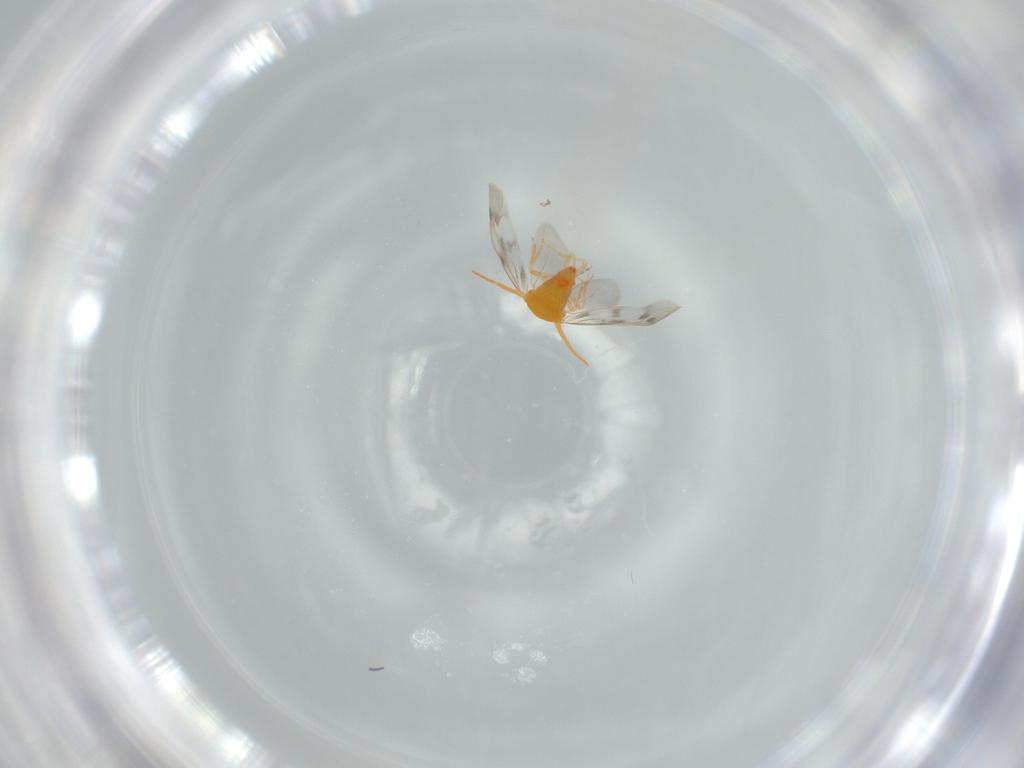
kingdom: Animalia
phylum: Arthropoda
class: Insecta
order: Hemiptera
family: Aleyrodidae
